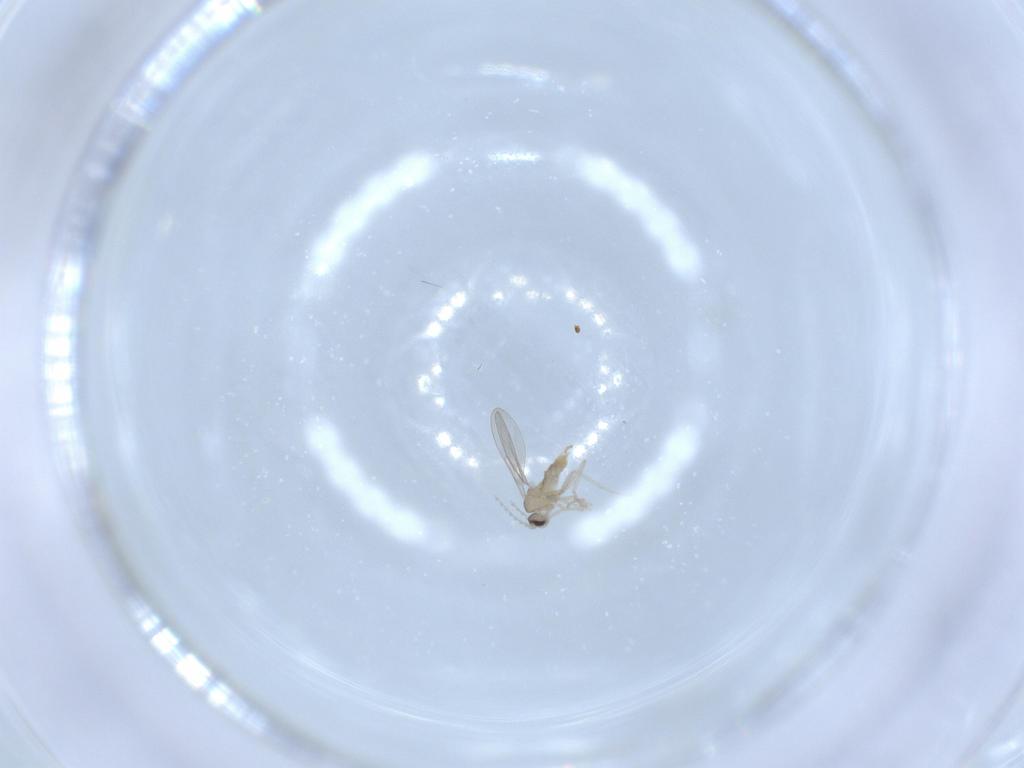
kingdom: Animalia
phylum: Arthropoda
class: Insecta
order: Diptera
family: Cecidomyiidae
